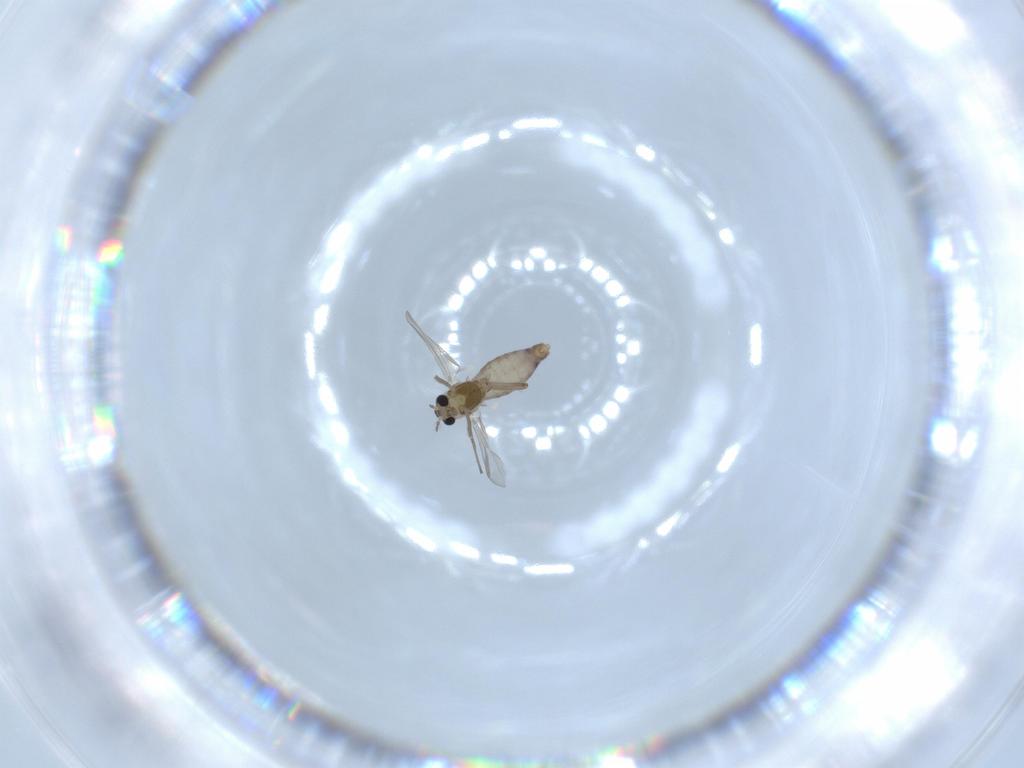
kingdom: Animalia
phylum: Arthropoda
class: Insecta
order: Diptera
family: Chironomidae
